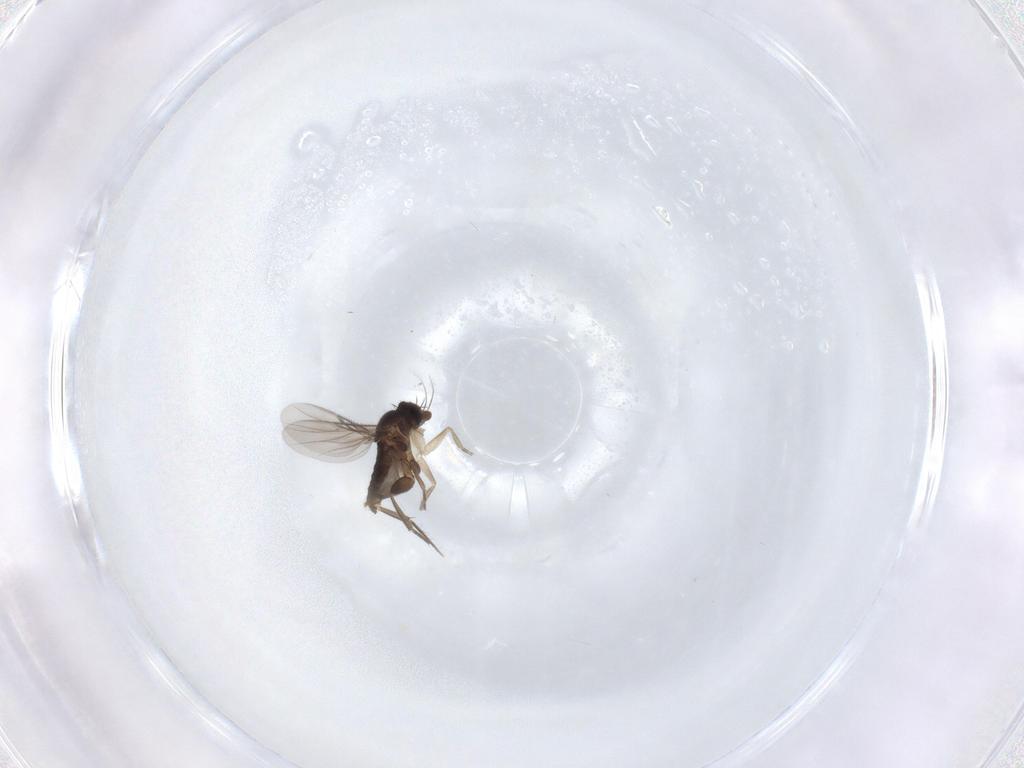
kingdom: Animalia
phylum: Arthropoda
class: Insecta
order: Diptera
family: Phoridae
